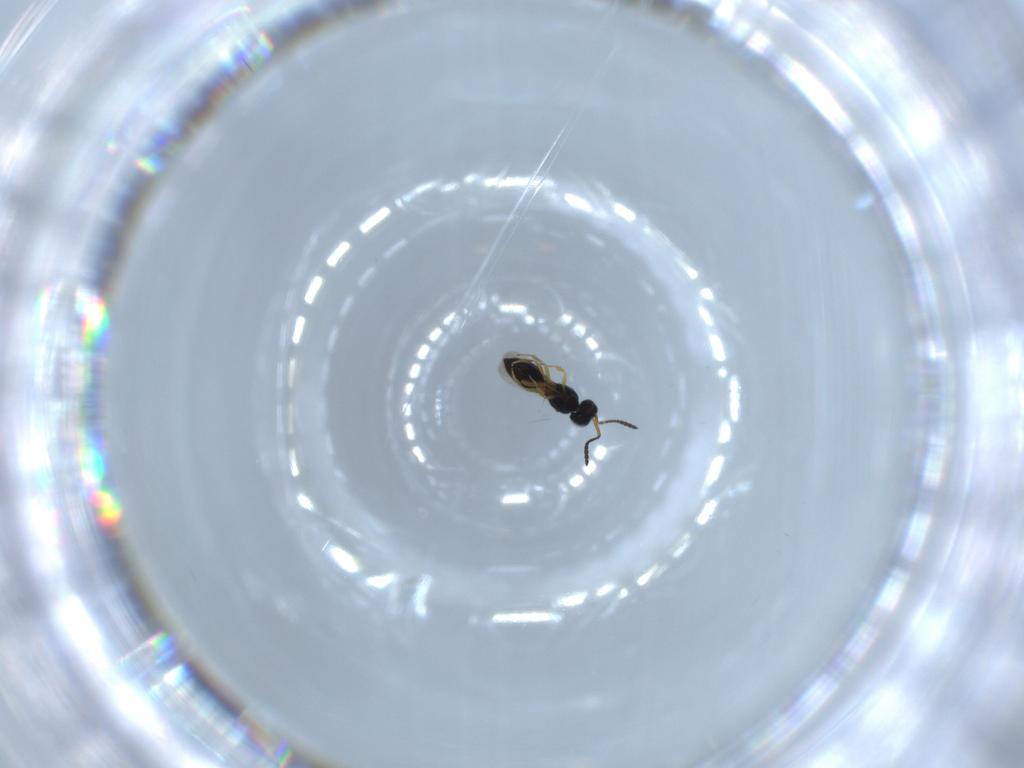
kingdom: Animalia
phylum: Arthropoda
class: Insecta
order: Hymenoptera
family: Scelionidae
